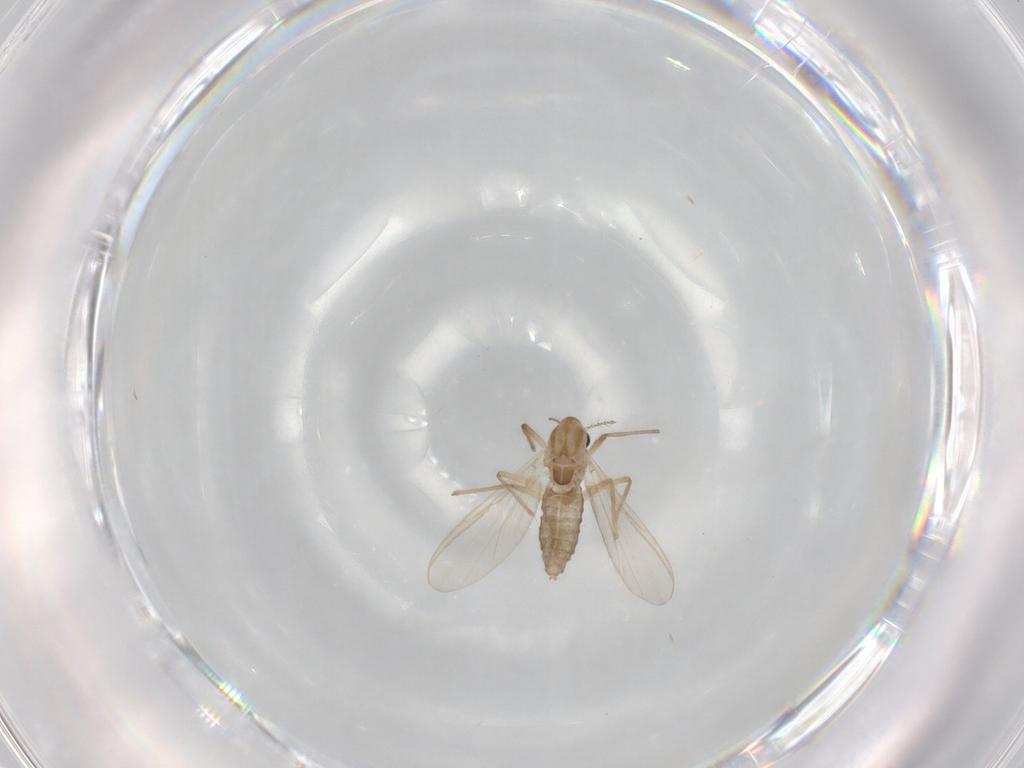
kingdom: Animalia
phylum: Arthropoda
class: Insecta
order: Diptera
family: Chironomidae
